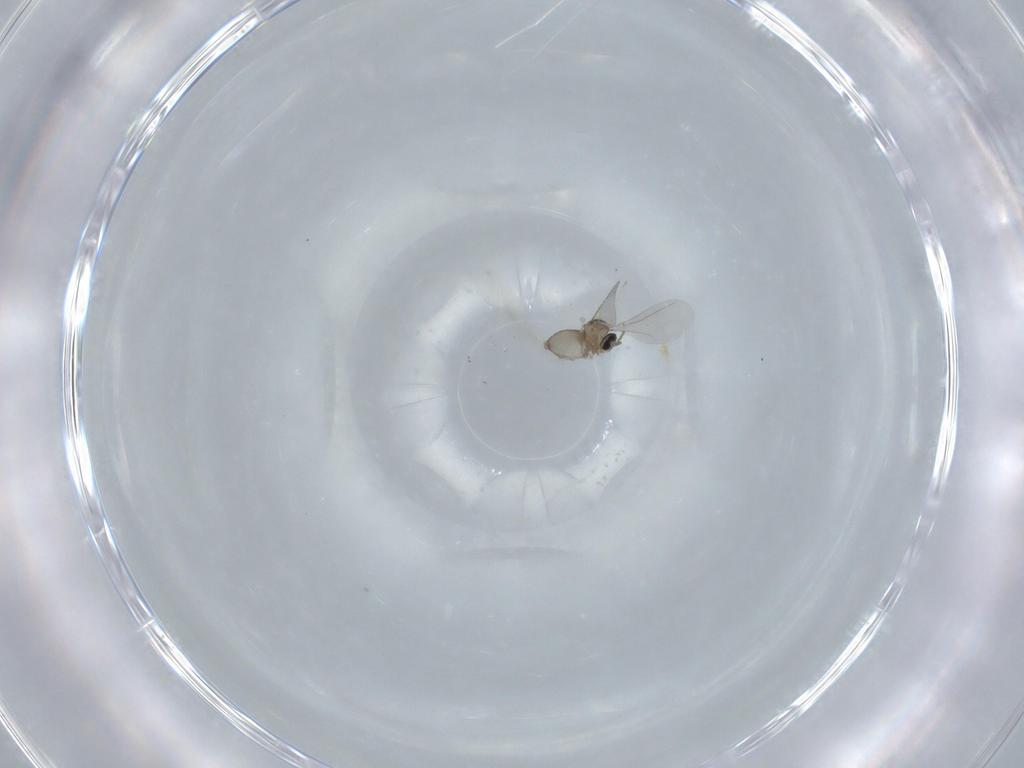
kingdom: Animalia
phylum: Arthropoda
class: Insecta
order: Diptera
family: Cecidomyiidae
